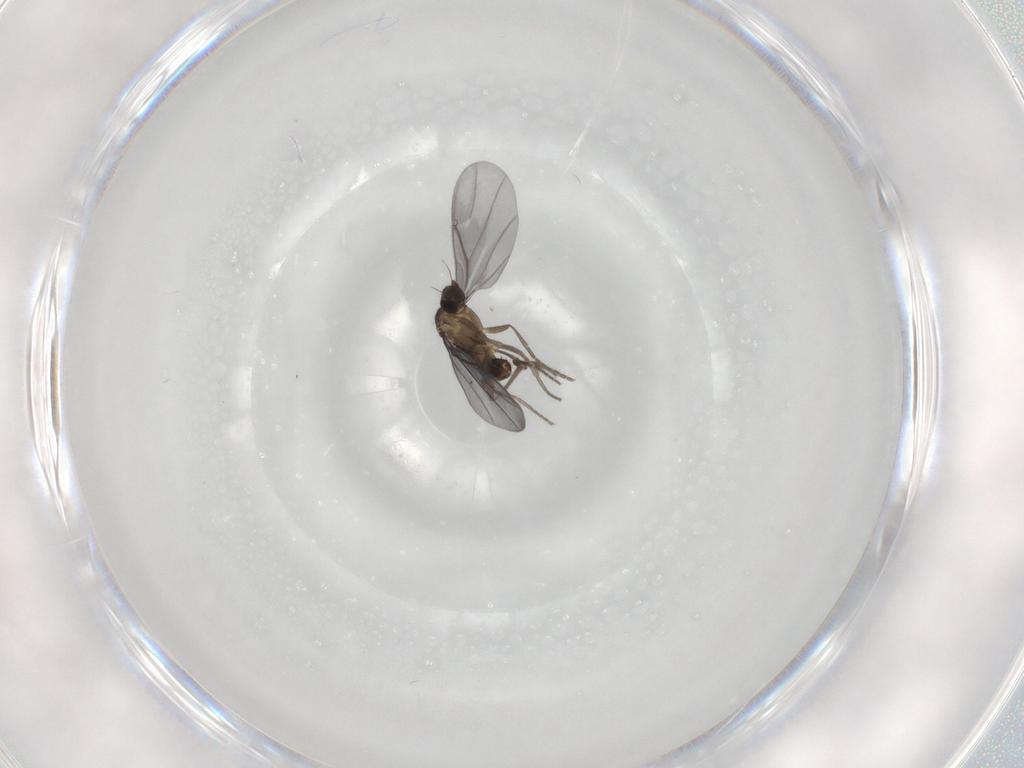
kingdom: Animalia
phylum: Arthropoda
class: Insecta
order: Diptera
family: Phoridae
